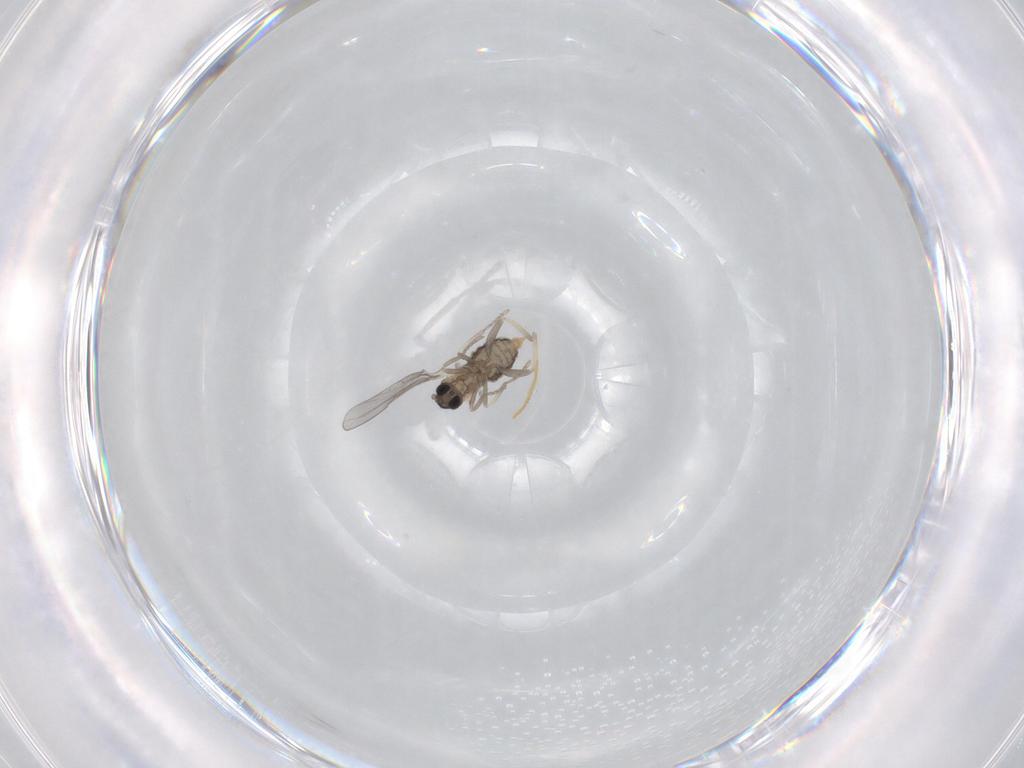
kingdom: Animalia
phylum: Arthropoda
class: Insecta
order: Diptera
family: Cecidomyiidae
